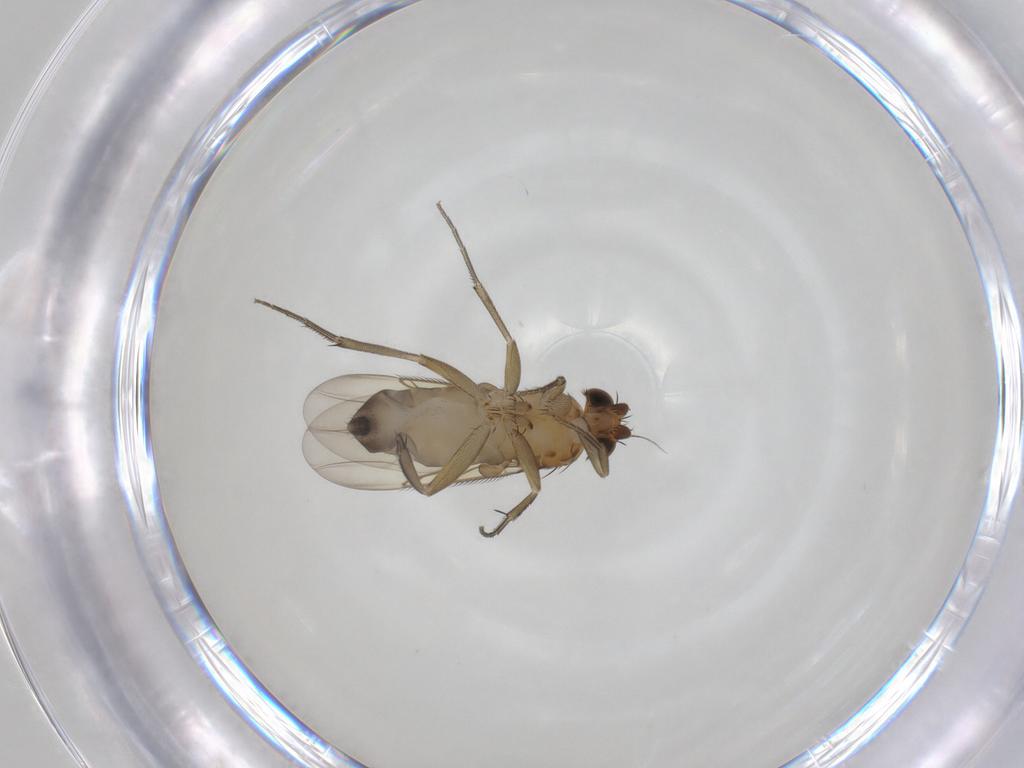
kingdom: Animalia
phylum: Arthropoda
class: Insecta
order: Diptera
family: Phoridae
